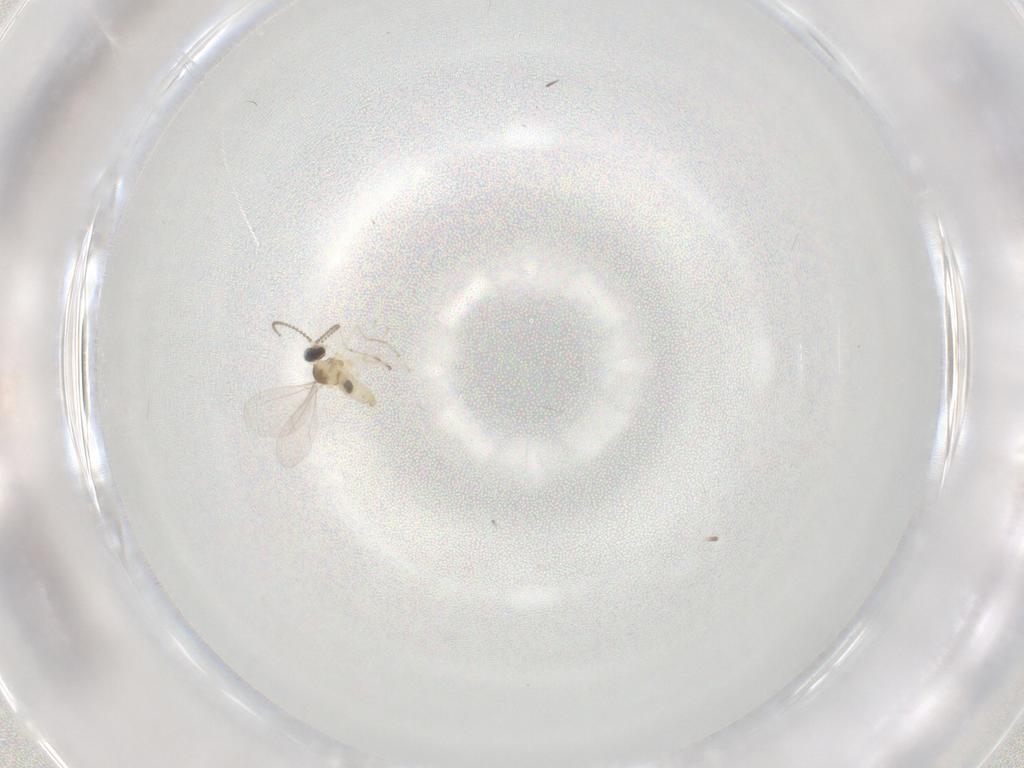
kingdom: Animalia
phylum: Arthropoda
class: Insecta
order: Diptera
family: Cecidomyiidae
